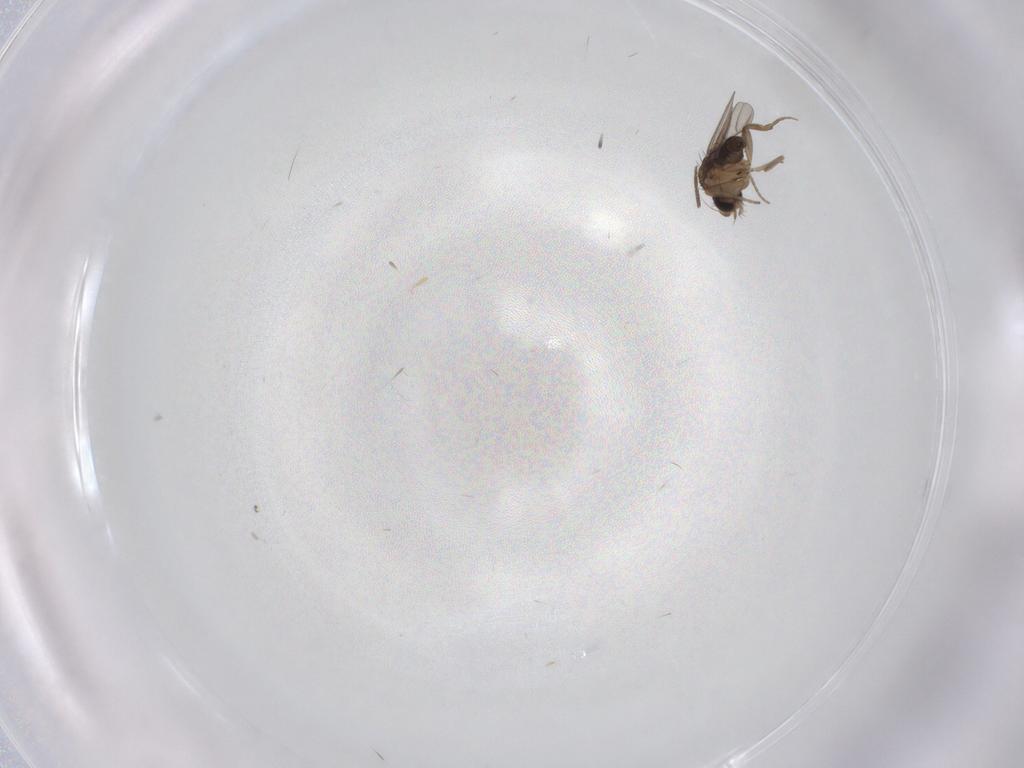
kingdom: Animalia
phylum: Arthropoda
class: Insecta
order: Diptera
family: Phoridae
